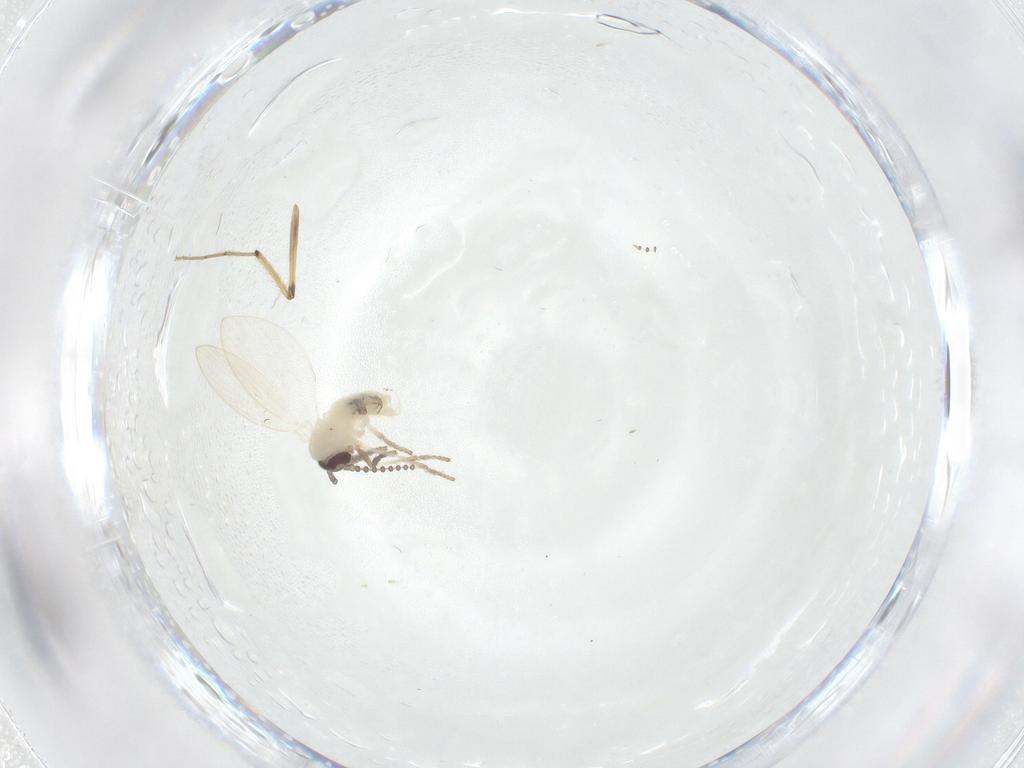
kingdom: Animalia
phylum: Arthropoda
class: Insecta
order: Diptera
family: Psychodidae
